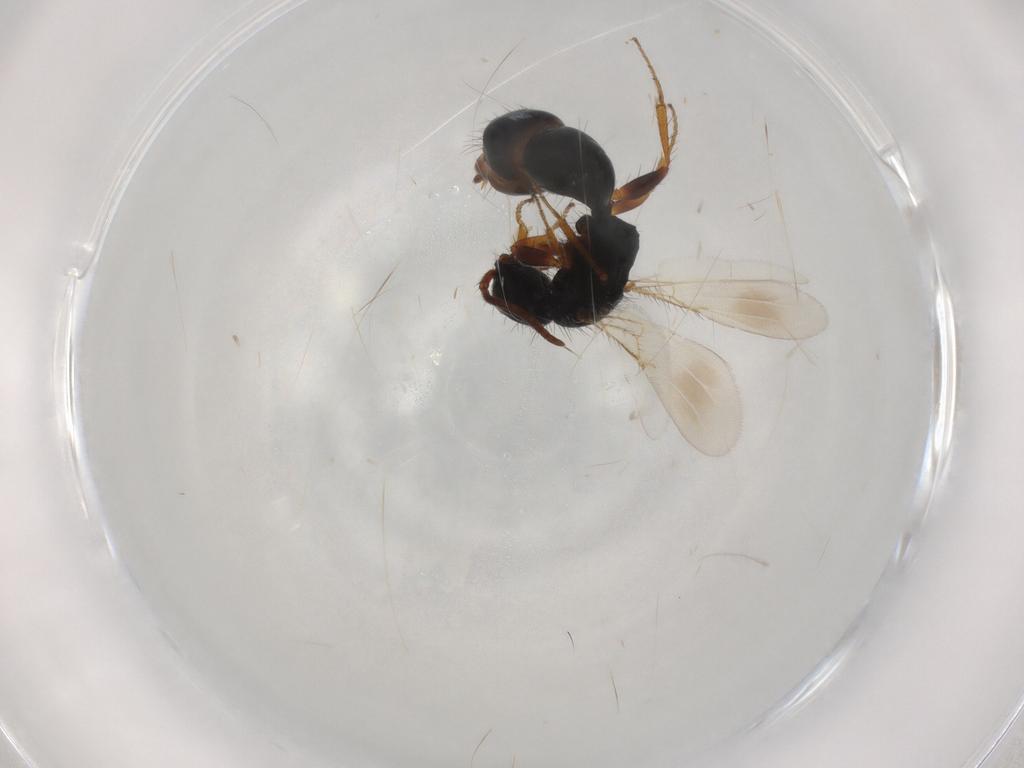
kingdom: Animalia
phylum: Arthropoda
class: Insecta
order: Hymenoptera
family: Bethylidae
